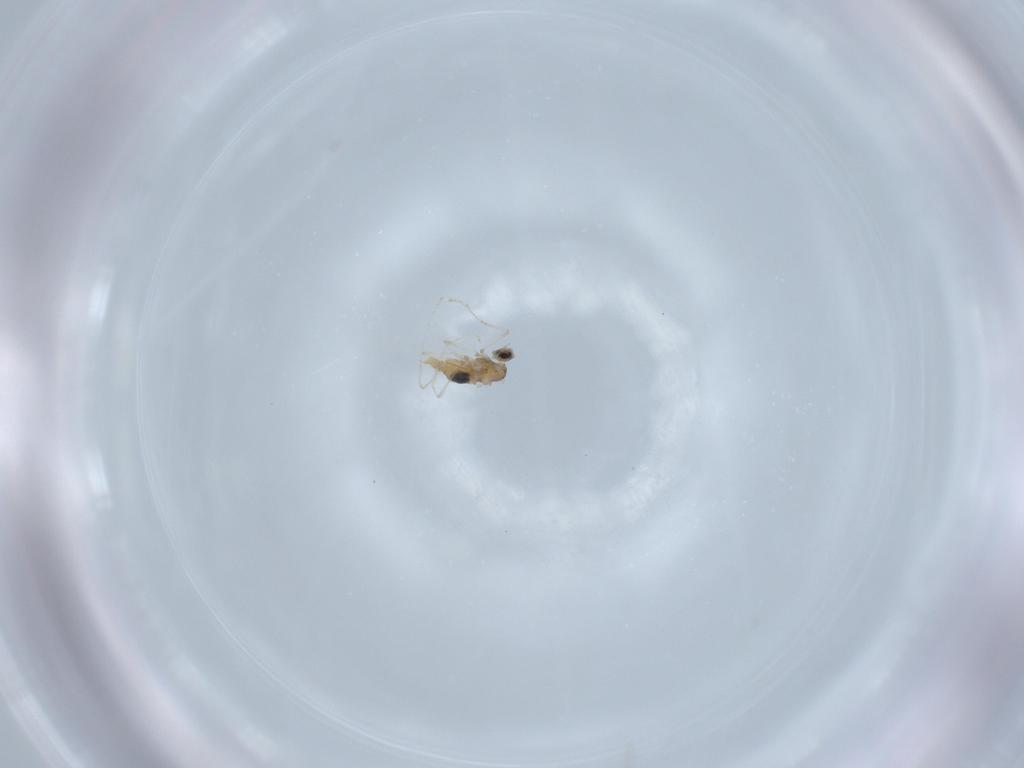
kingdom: Animalia
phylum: Arthropoda
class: Insecta
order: Diptera
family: Cecidomyiidae
